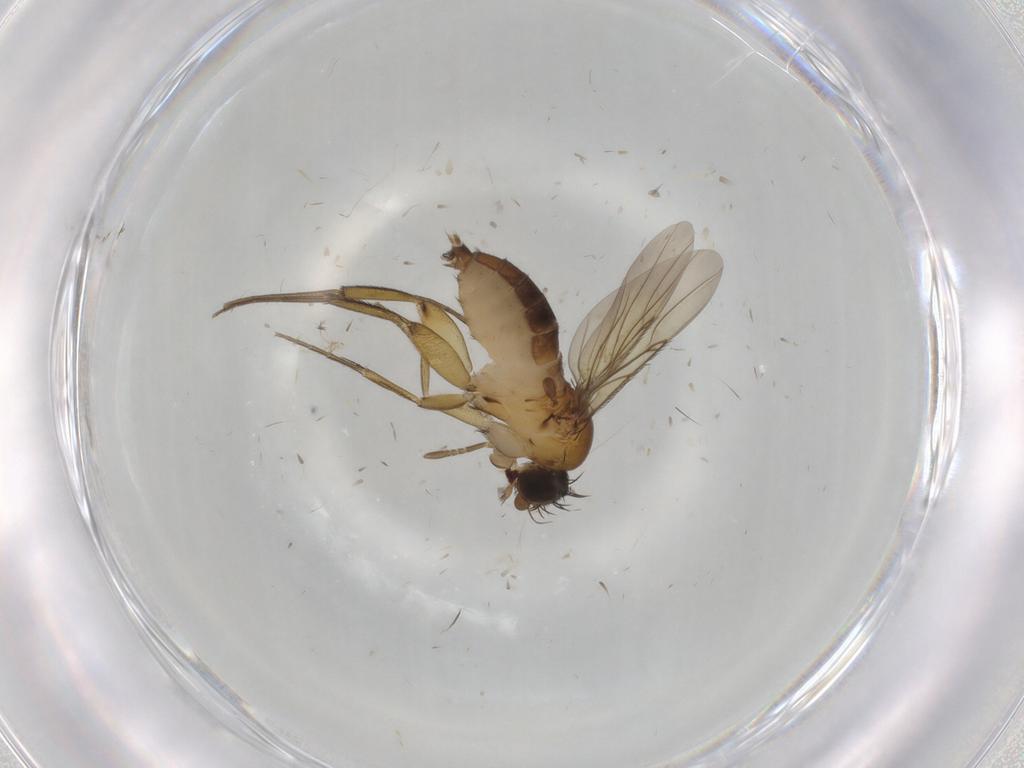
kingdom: Animalia
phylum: Arthropoda
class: Insecta
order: Diptera
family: Phoridae
